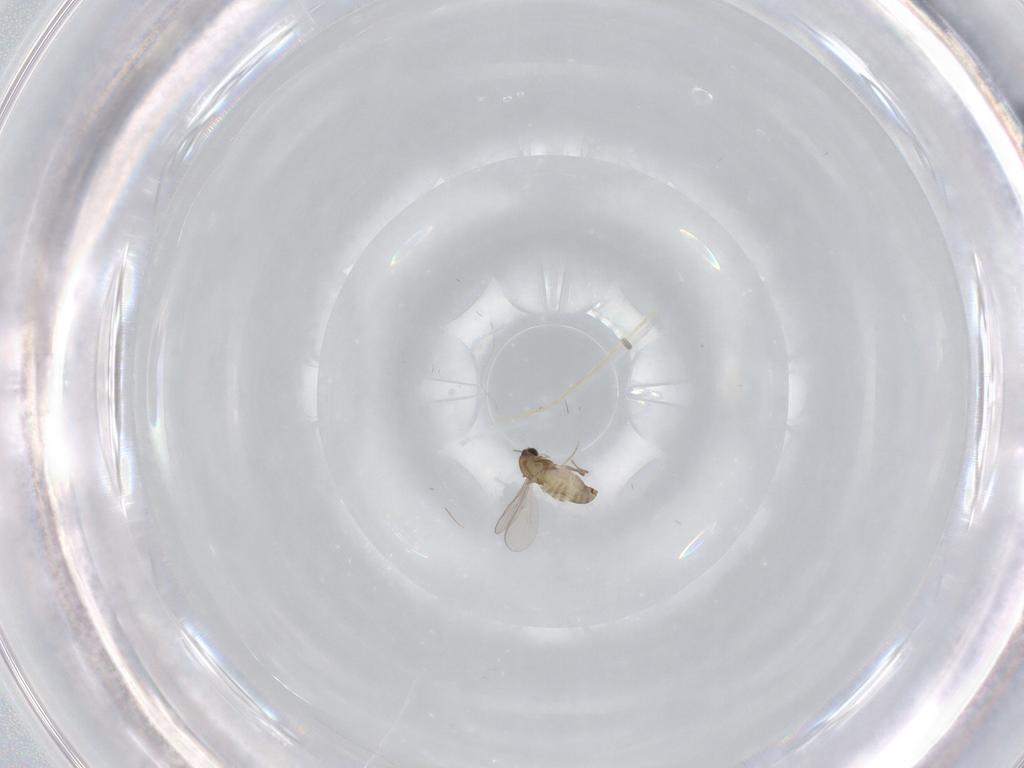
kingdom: Animalia
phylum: Arthropoda
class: Insecta
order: Diptera
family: Chironomidae
